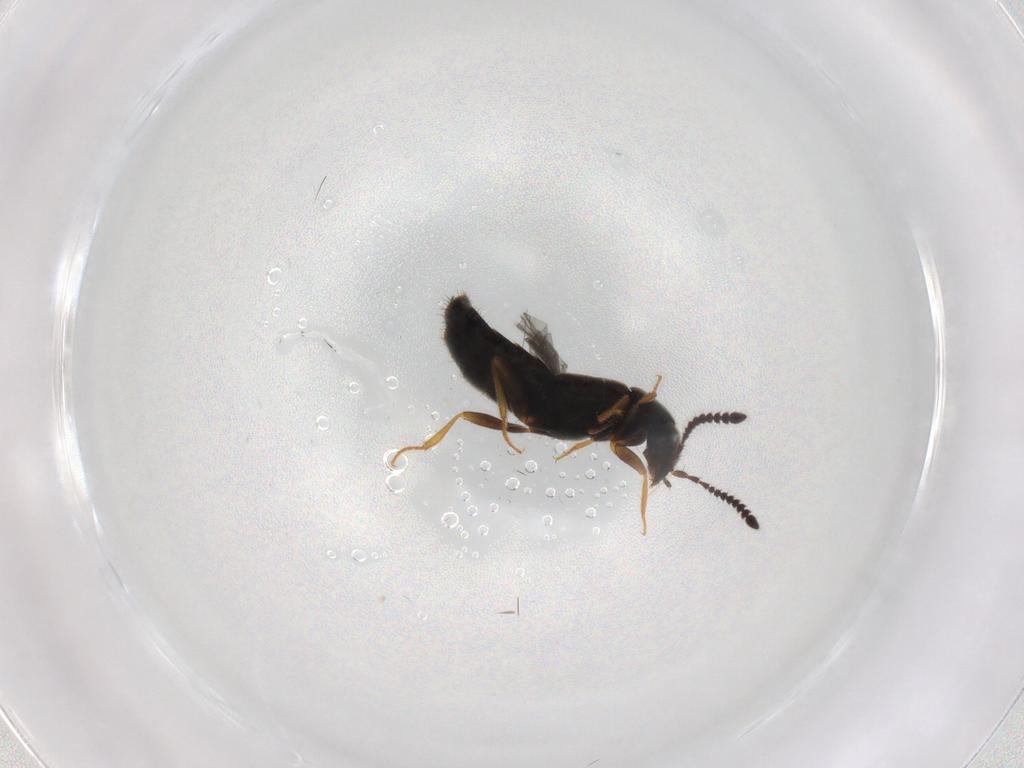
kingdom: Animalia
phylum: Arthropoda
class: Insecta
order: Coleoptera
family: Staphylinidae
